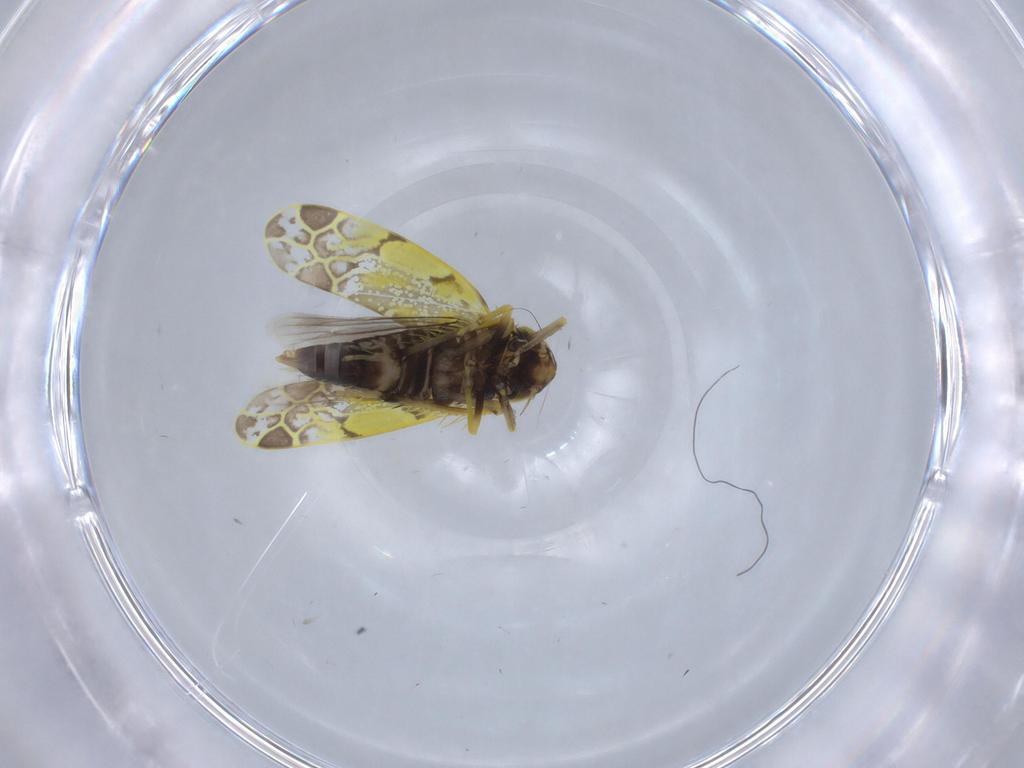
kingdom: Animalia
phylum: Arthropoda
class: Insecta
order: Hemiptera
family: Cicadellidae
